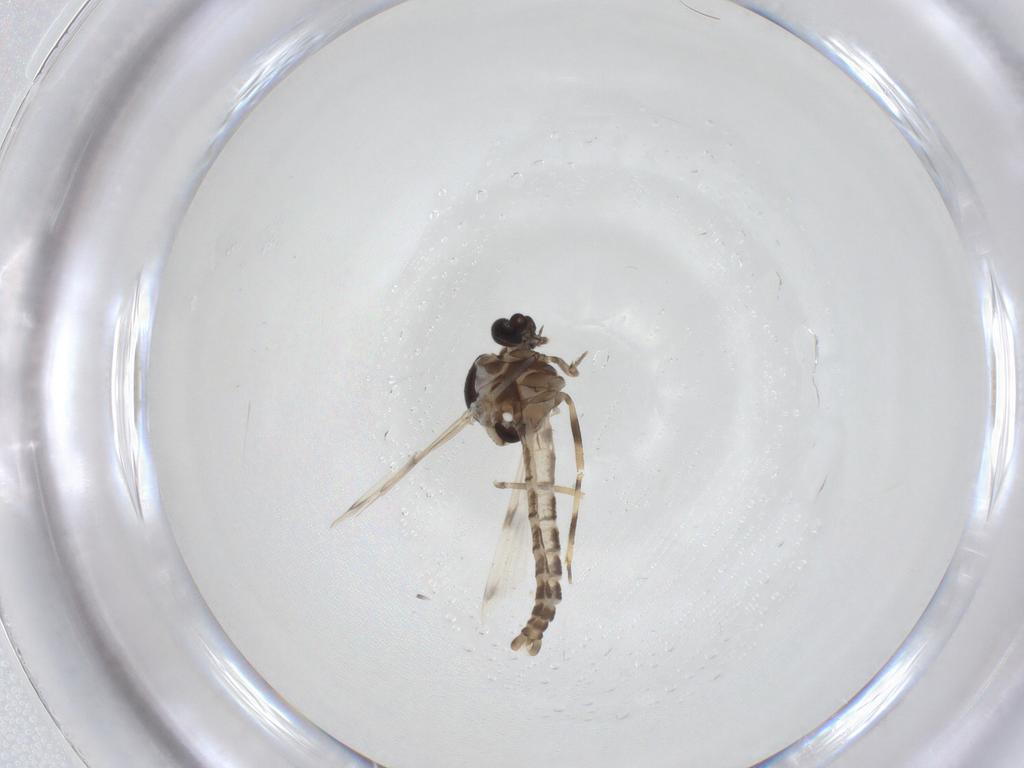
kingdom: Animalia
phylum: Arthropoda
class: Insecta
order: Diptera
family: Ceratopogonidae
